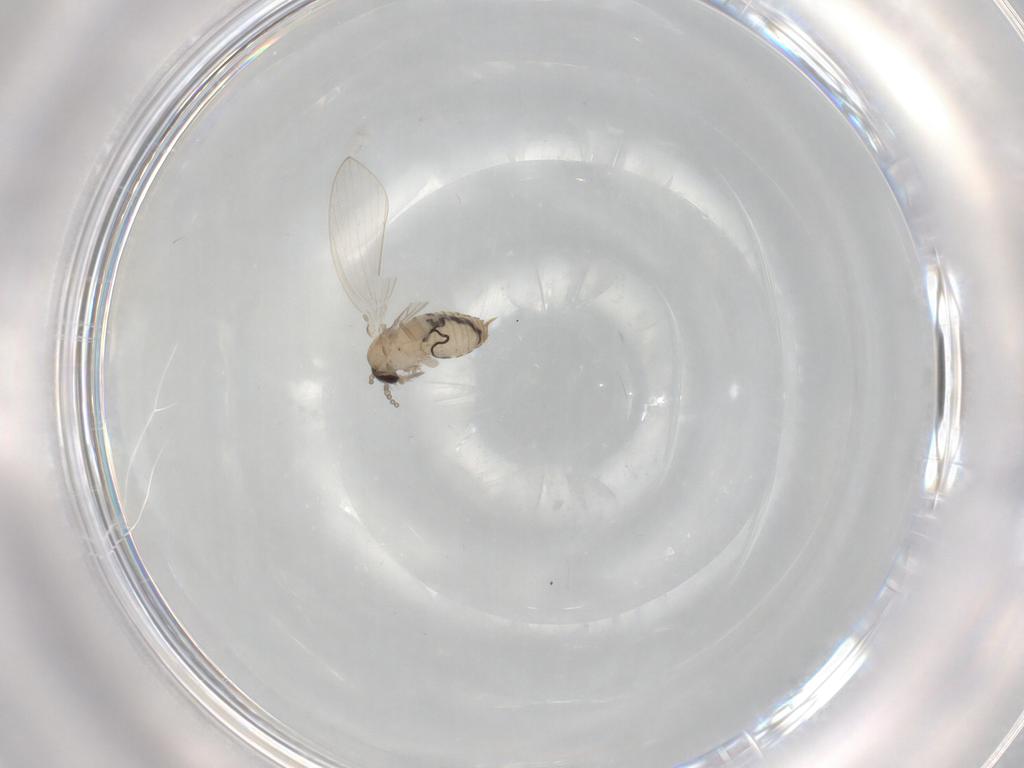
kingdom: Animalia
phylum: Arthropoda
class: Insecta
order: Diptera
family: Psychodidae
